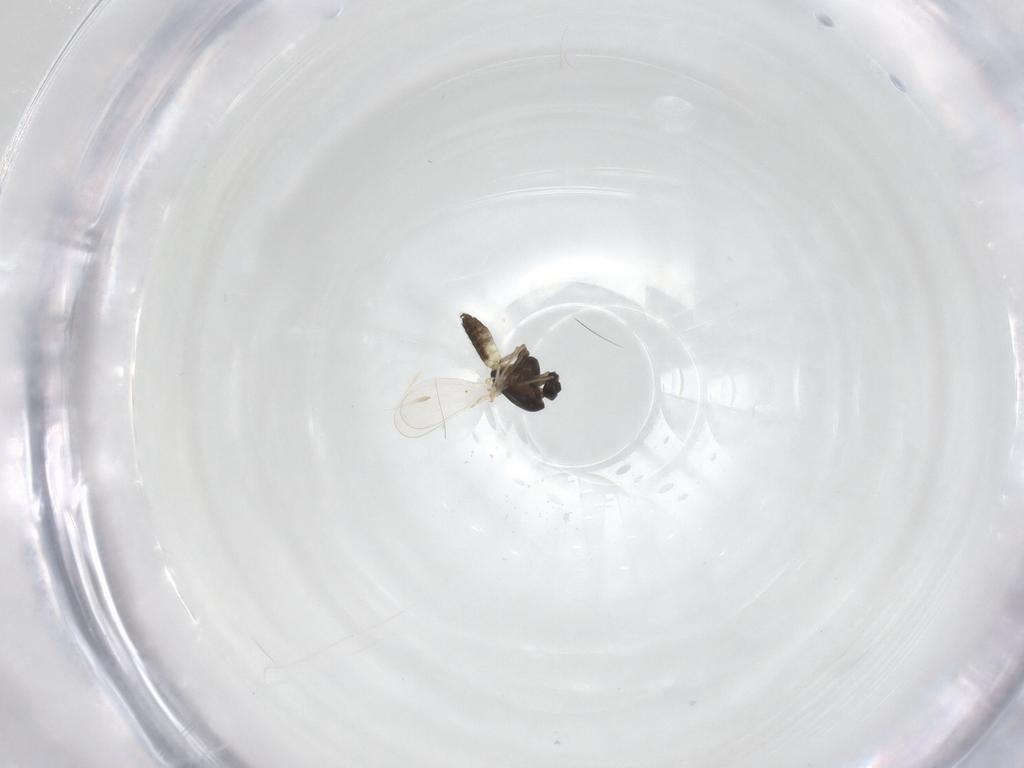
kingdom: Animalia
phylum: Arthropoda
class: Insecta
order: Diptera
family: Chironomidae
